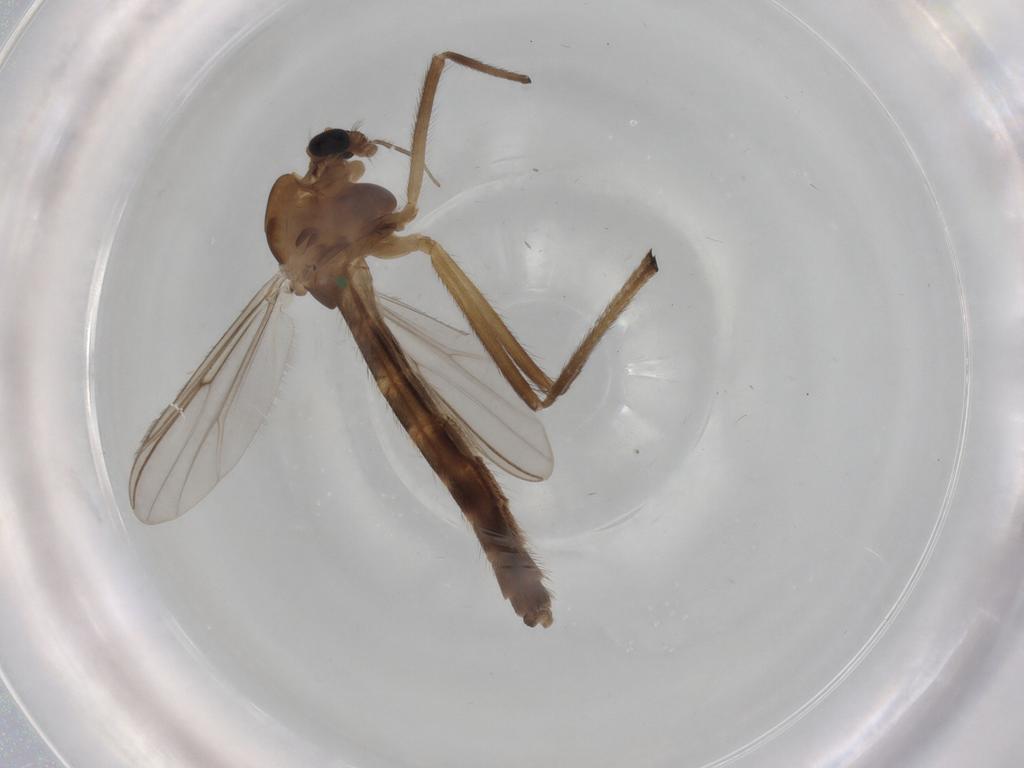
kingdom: Animalia
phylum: Arthropoda
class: Insecta
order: Diptera
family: Chironomidae
